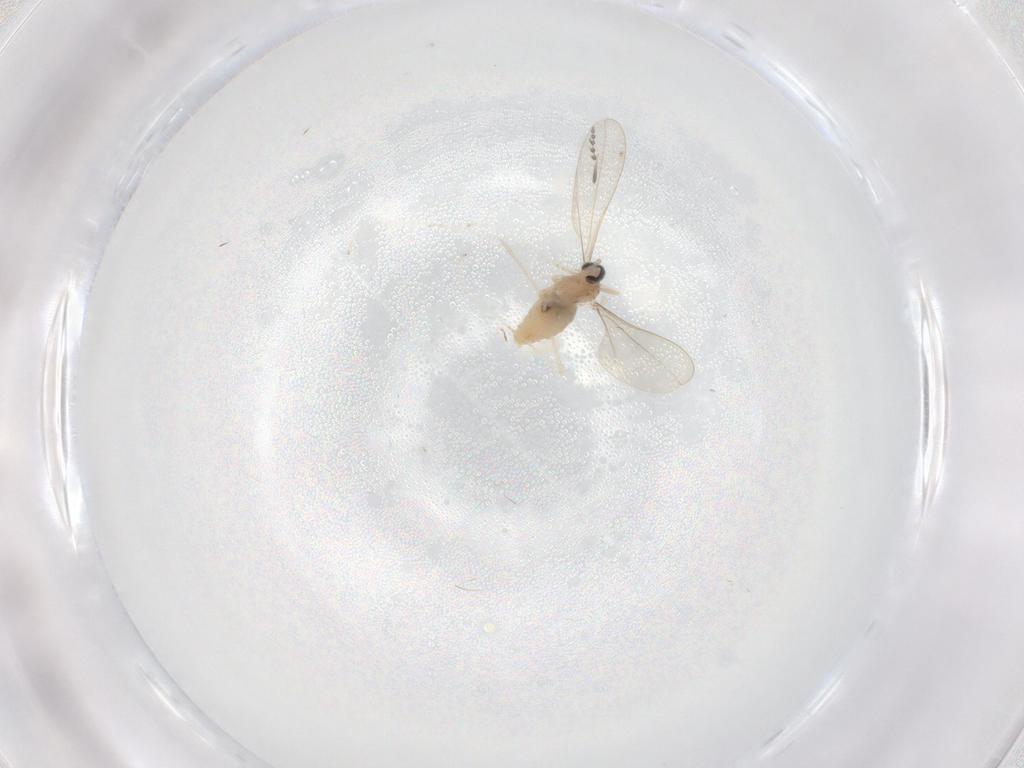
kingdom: Animalia
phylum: Arthropoda
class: Insecta
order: Diptera
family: Cecidomyiidae
